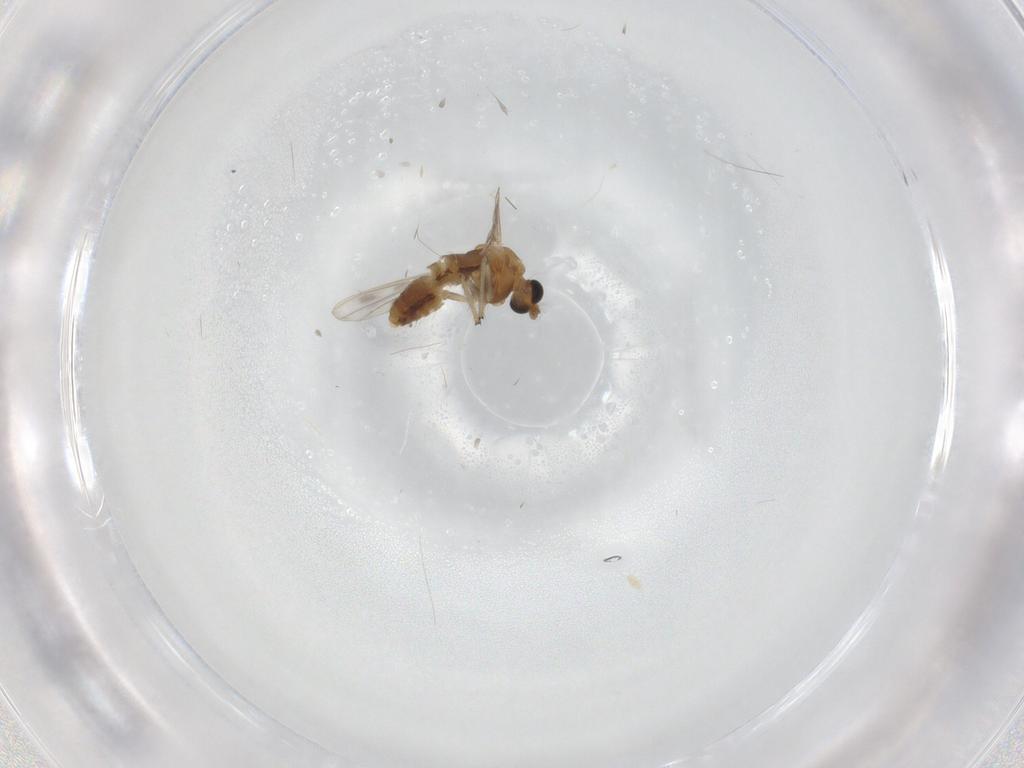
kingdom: Animalia
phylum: Arthropoda
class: Insecta
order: Diptera
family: Chironomidae
